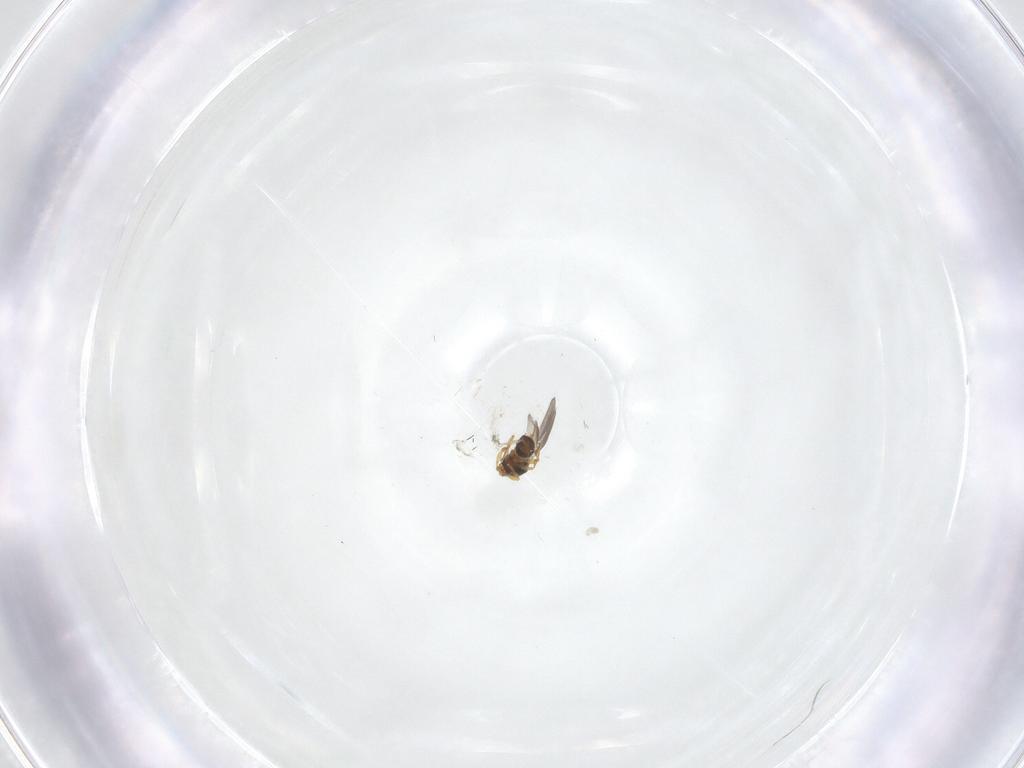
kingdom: Animalia
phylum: Arthropoda
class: Insecta
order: Hymenoptera
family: Platygastridae
